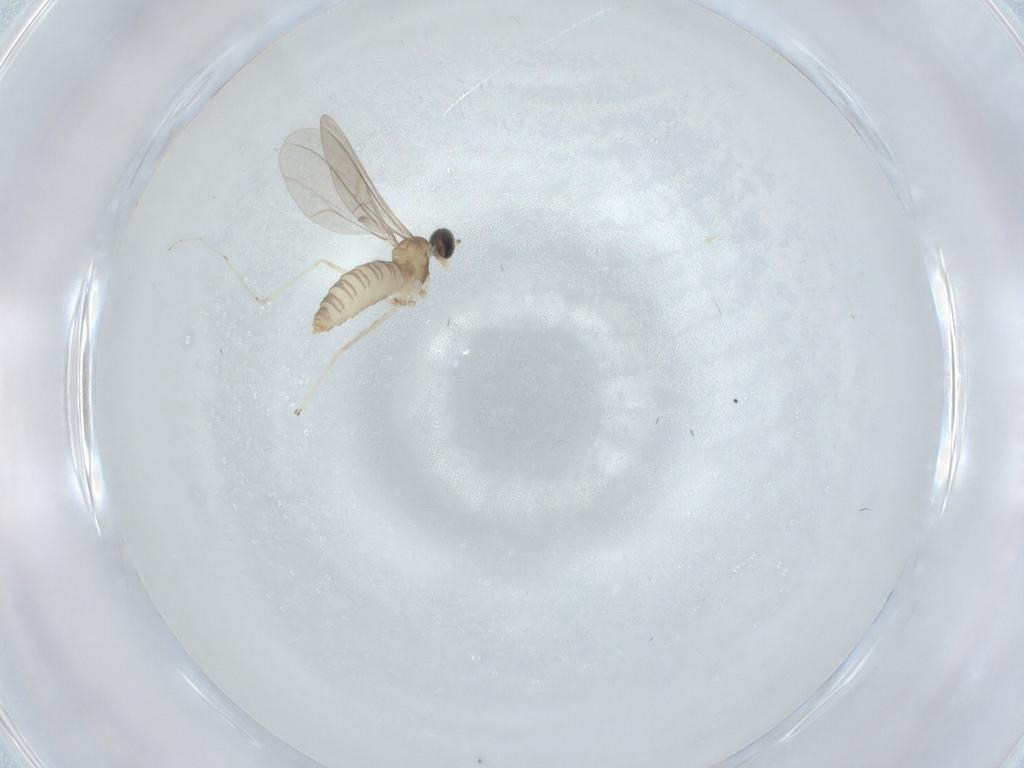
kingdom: Animalia
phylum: Arthropoda
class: Insecta
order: Diptera
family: Cecidomyiidae
